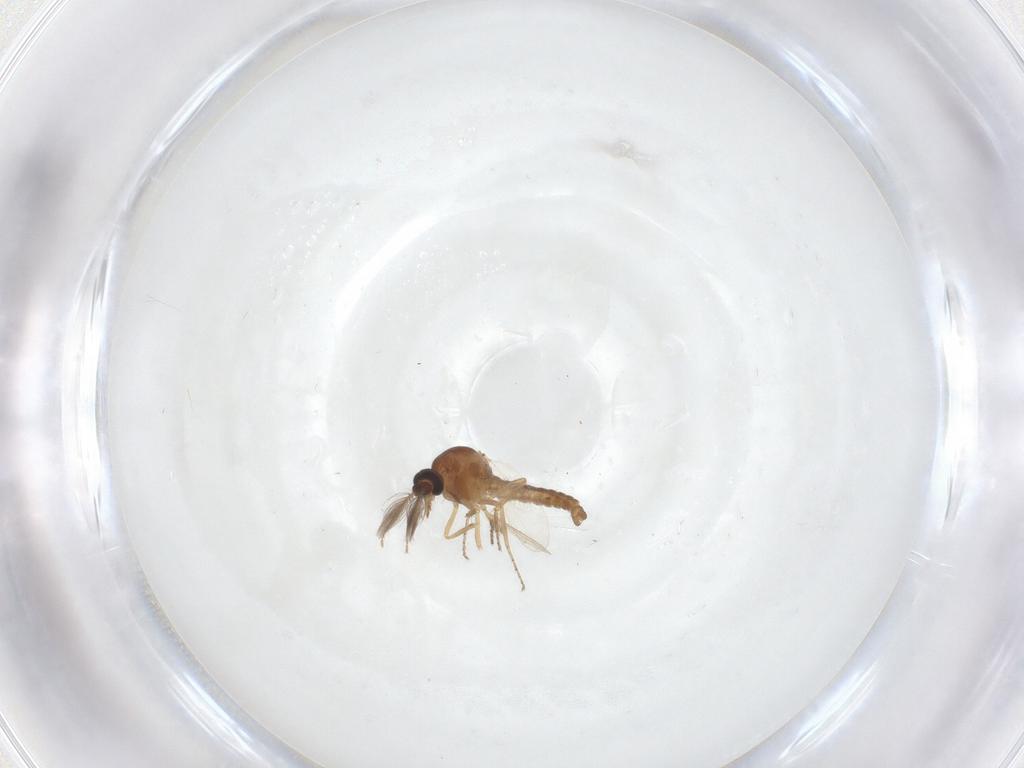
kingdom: Animalia
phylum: Arthropoda
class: Insecta
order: Diptera
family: Ceratopogonidae
